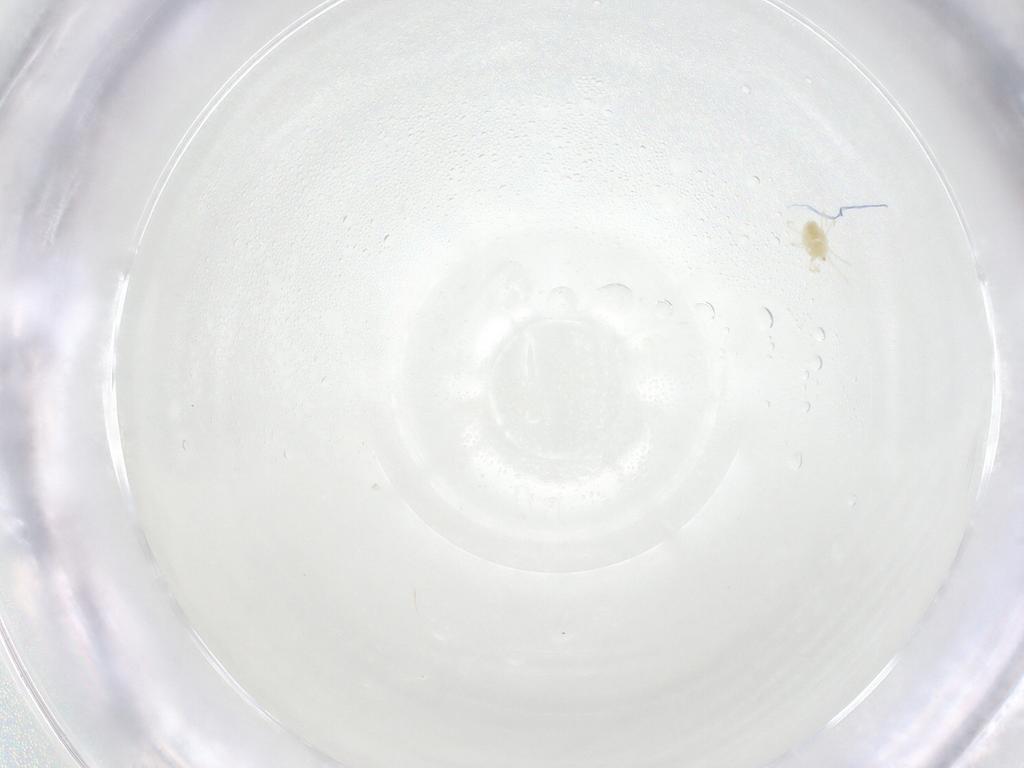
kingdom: Animalia
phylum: Arthropoda
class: Arachnida
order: Trombidiformes
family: Tetranychidae
